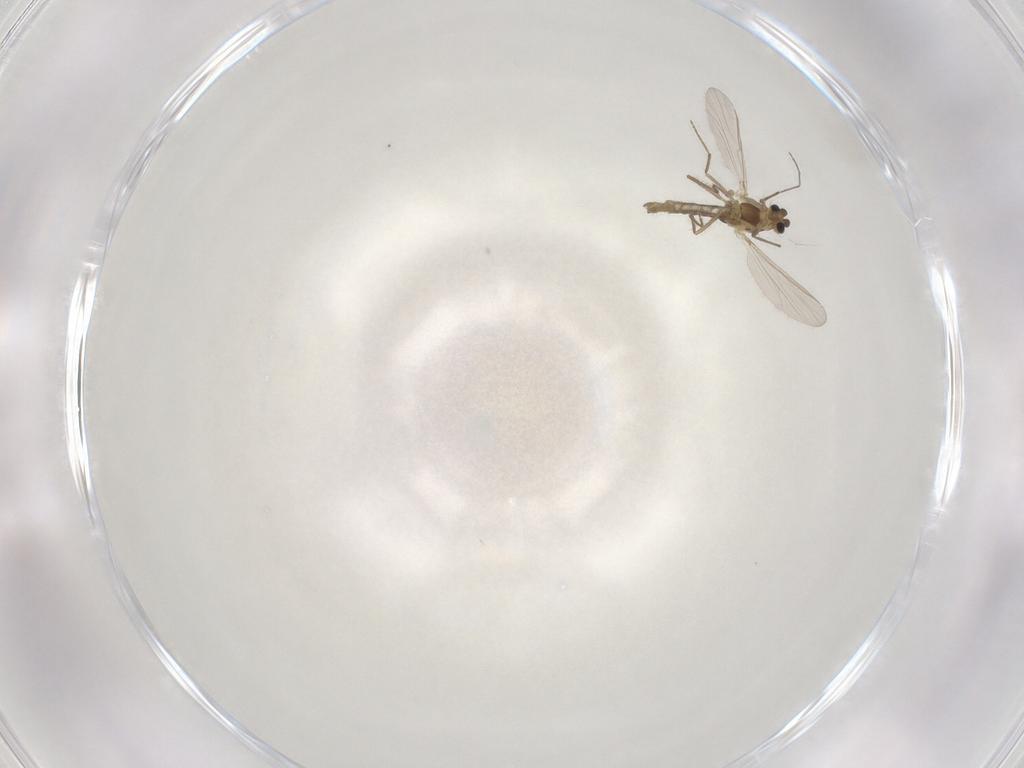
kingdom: Animalia
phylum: Arthropoda
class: Insecta
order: Diptera
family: Chironomidae
